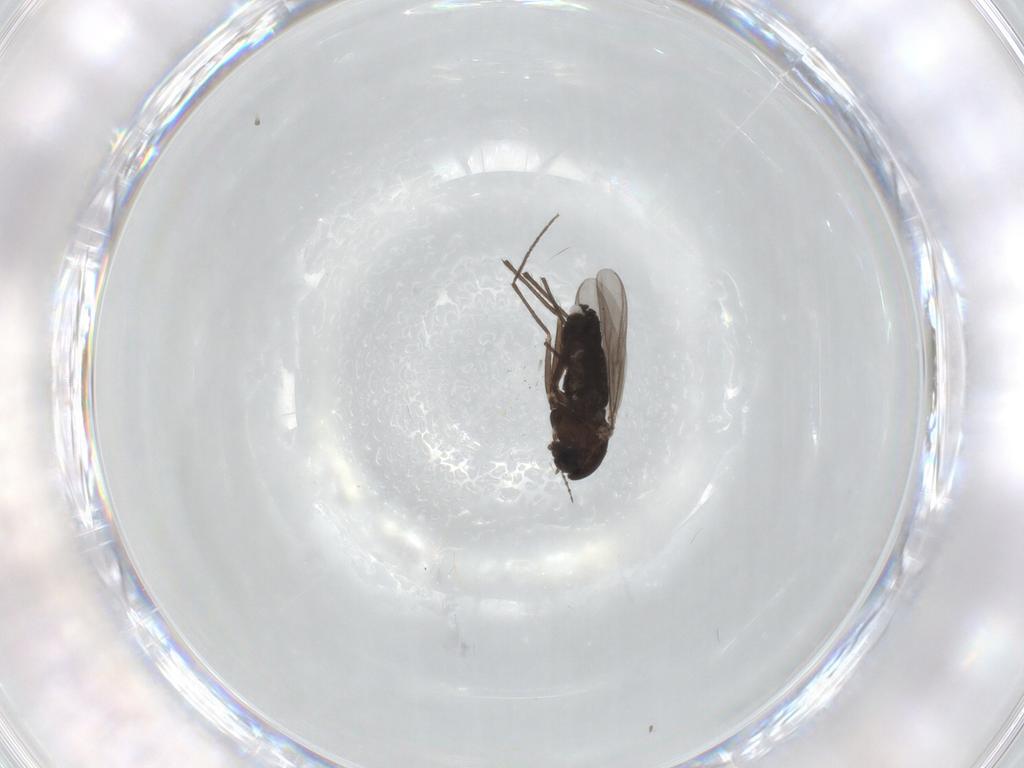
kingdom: Animalia
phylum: Arthropoda
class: Insecta
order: Diptera
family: Chironomidae
